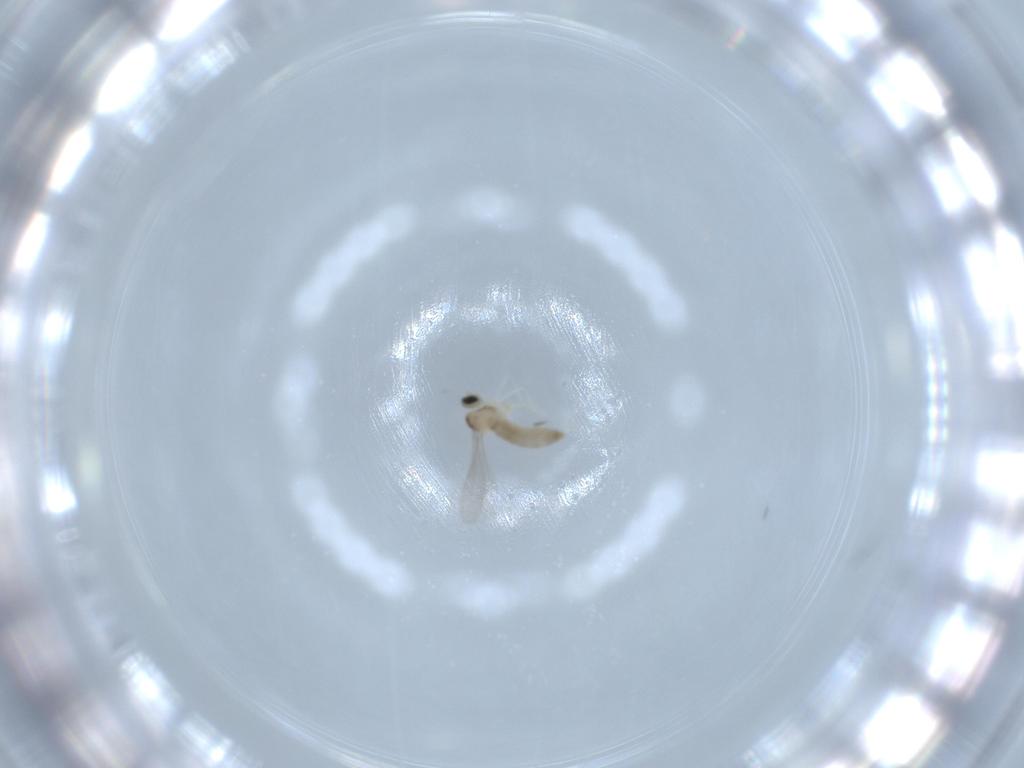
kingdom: Animalia
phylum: Arthropoda
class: Insecta
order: Diptera
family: Cecidomyiidae
